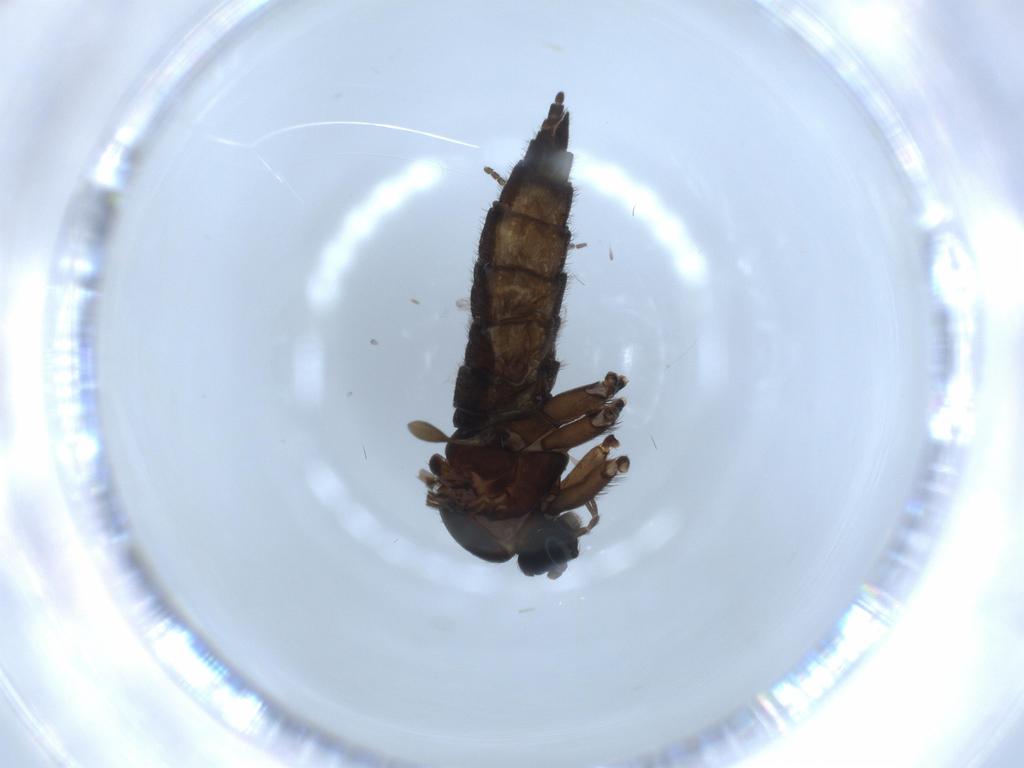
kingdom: Animalia
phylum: Arthropoda
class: Insecta
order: Diptera
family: Sciaridae
